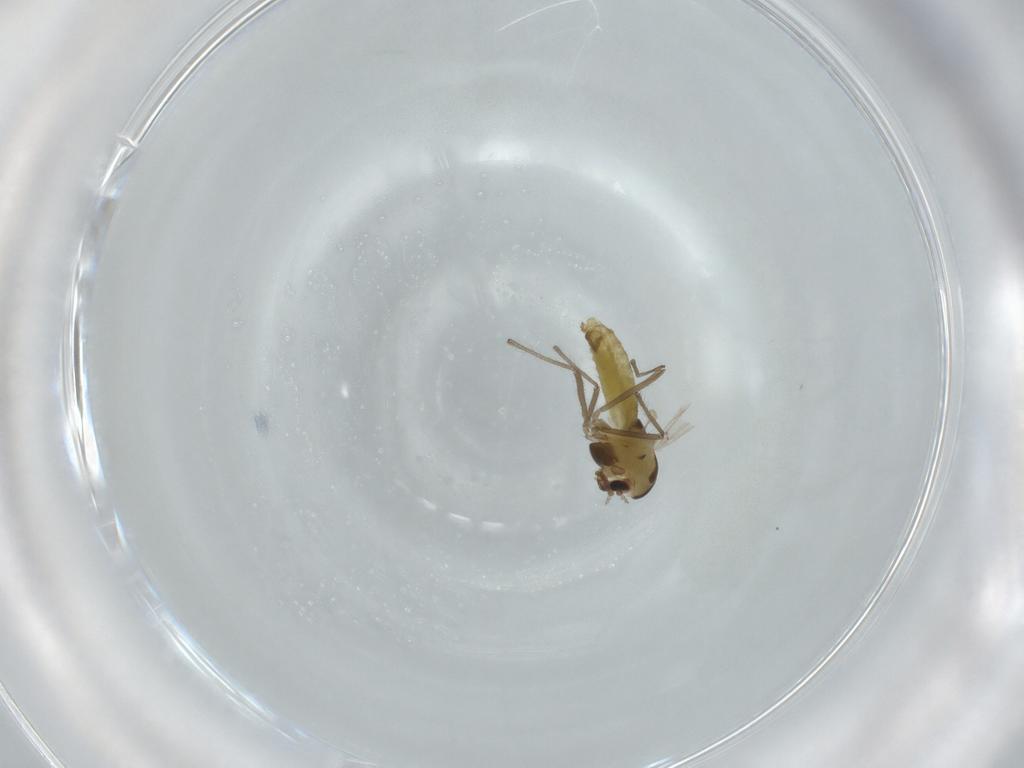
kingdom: Animalia
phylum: Arthropoda
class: Insecta
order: Diptera
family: Chironomidae
